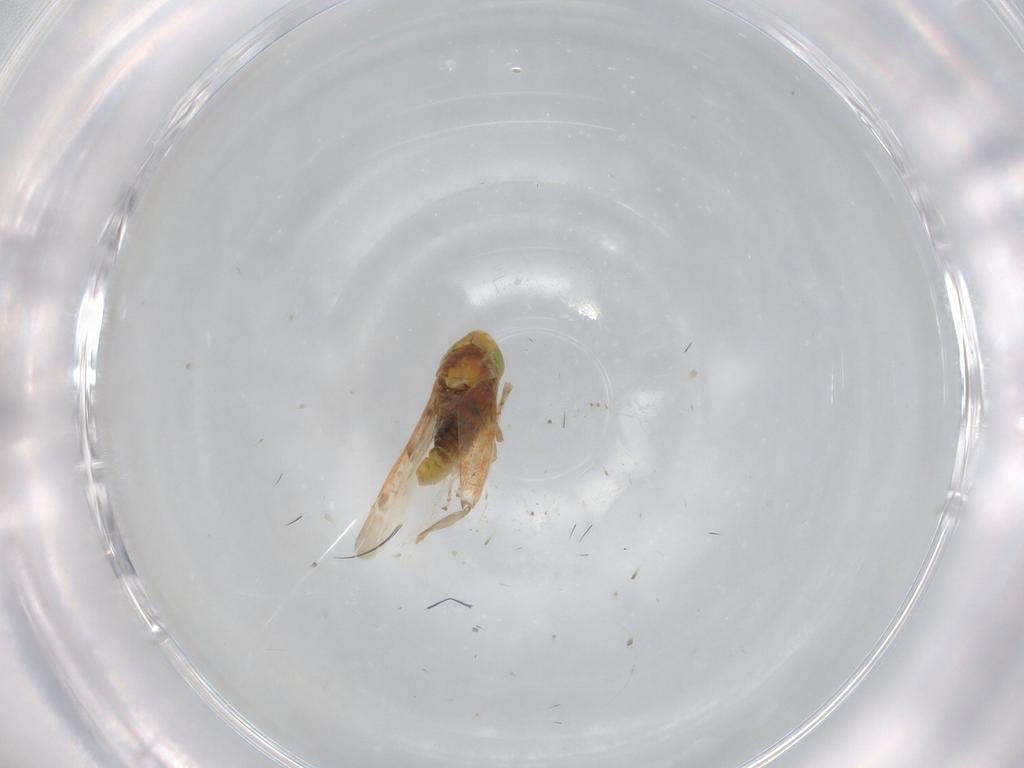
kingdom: Animalia
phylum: Arthropoda
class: Insecta
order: Hemiptera
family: Cicadellidae
